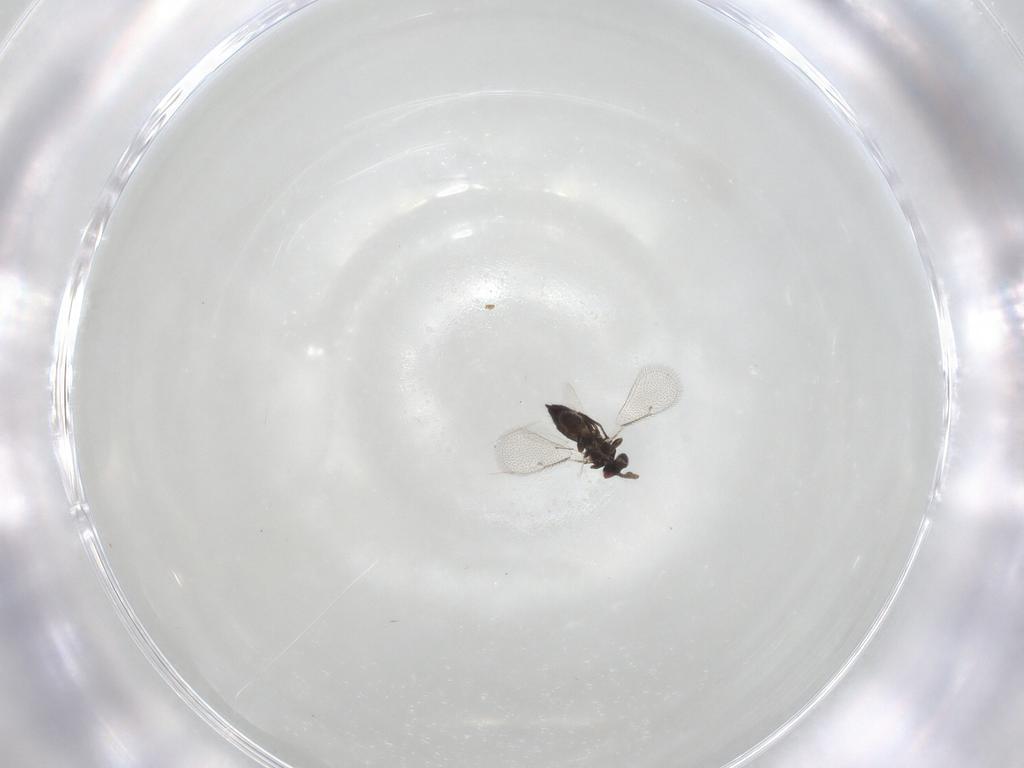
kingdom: Animalia
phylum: Arthropoda
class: Insecta
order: Hymenoptera
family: Eulophidae
